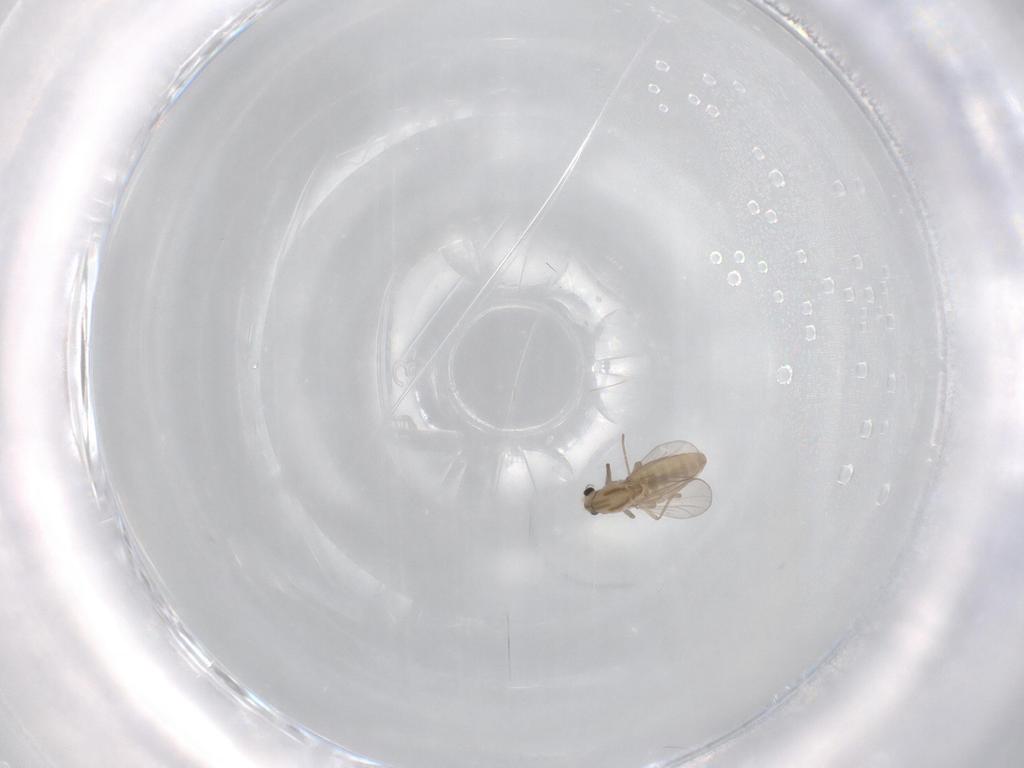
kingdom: Animalia
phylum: Arthropoda
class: Insecta
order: Diptera
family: Chironomidae
